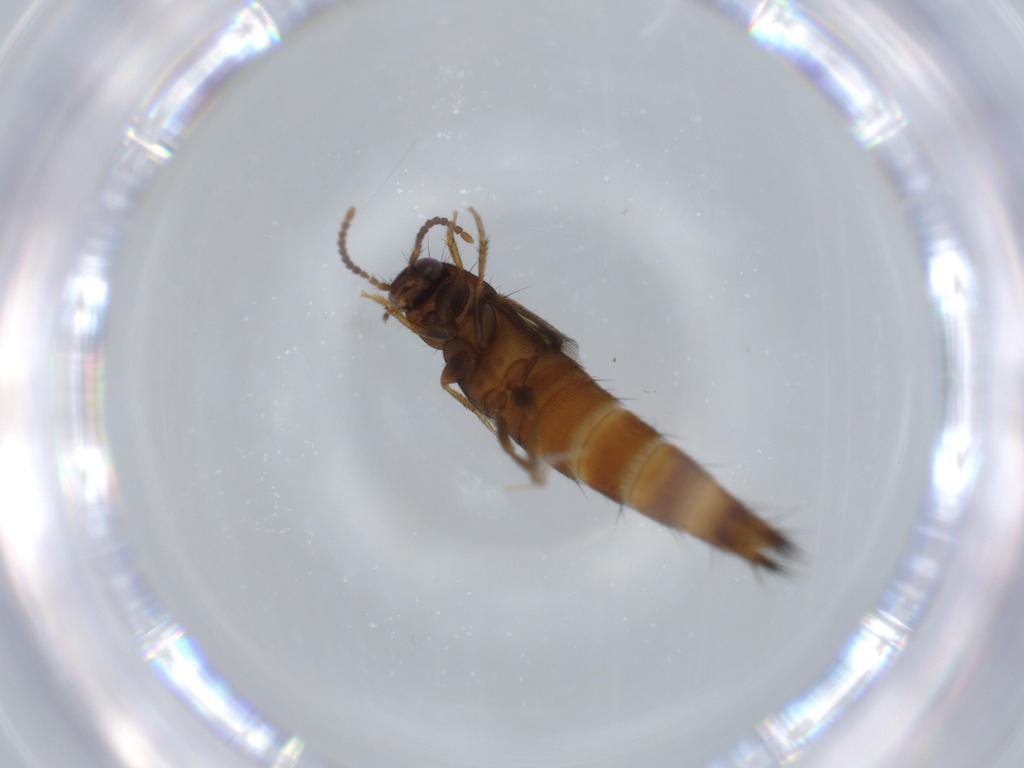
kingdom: Animalia
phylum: Arthropoda
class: Insecta
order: Coleoptera
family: Staphylinidae
